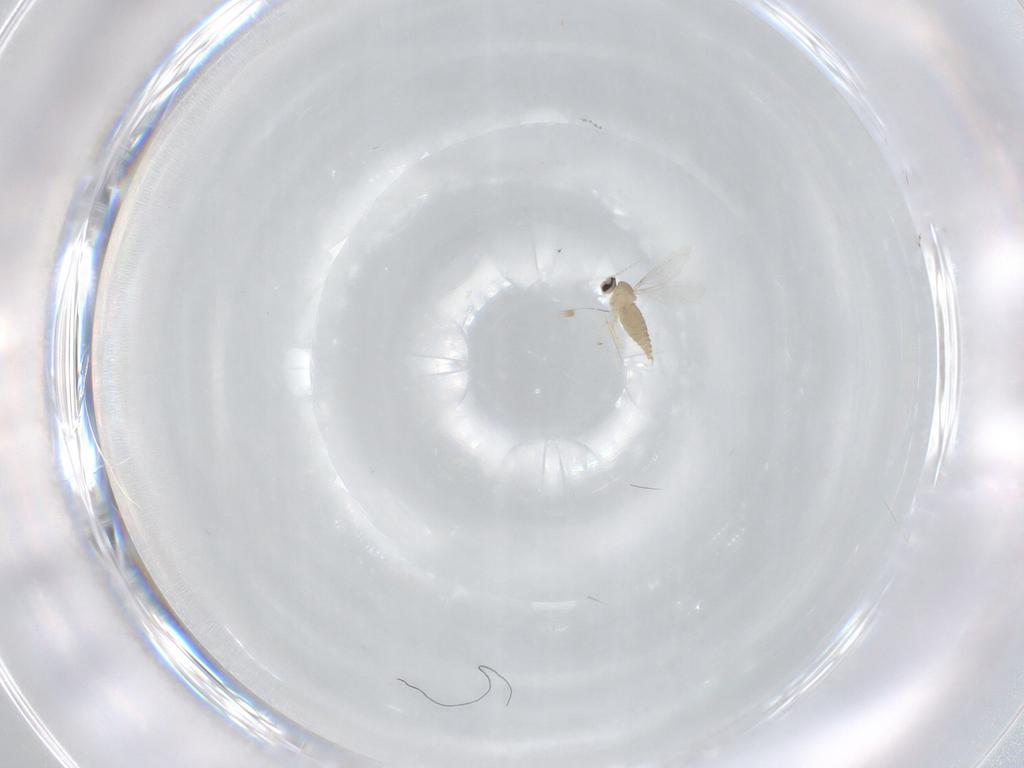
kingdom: Animalia
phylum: Arthropoda
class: Insecta
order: Diptera
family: Cecidomyiidae
